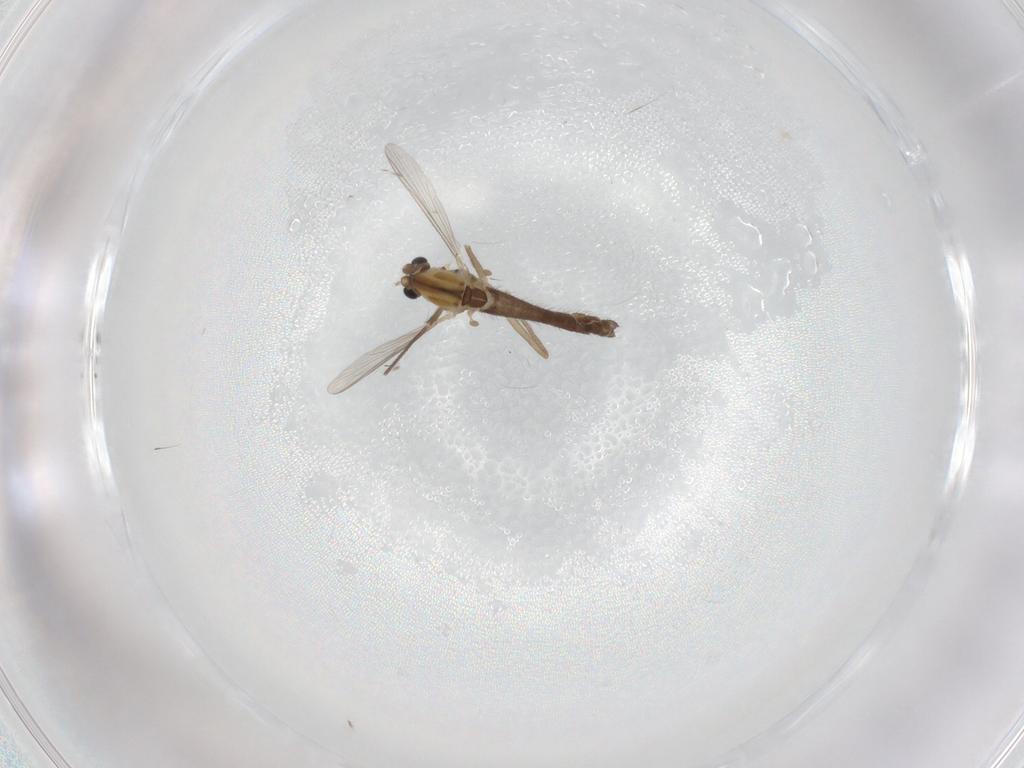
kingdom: Animalia
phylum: Arthropoda
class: Insecta
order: Diptera
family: Chironomidae
